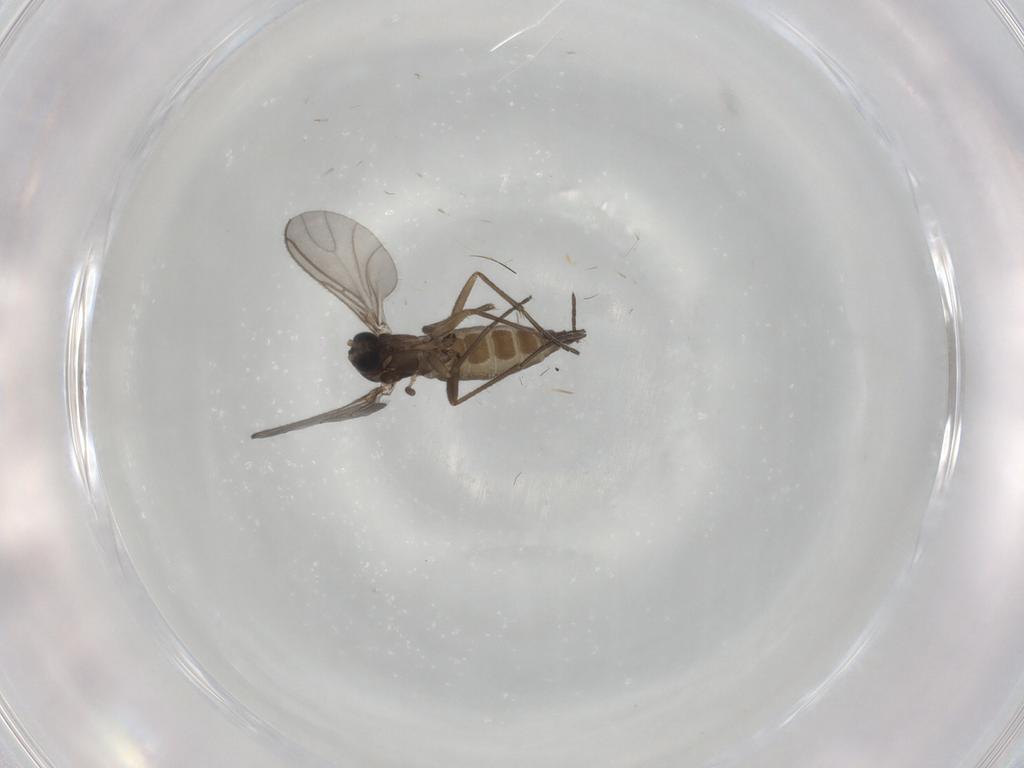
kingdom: Animalia
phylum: Arthropoda
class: Insecta
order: Diptera
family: Sciaridae
